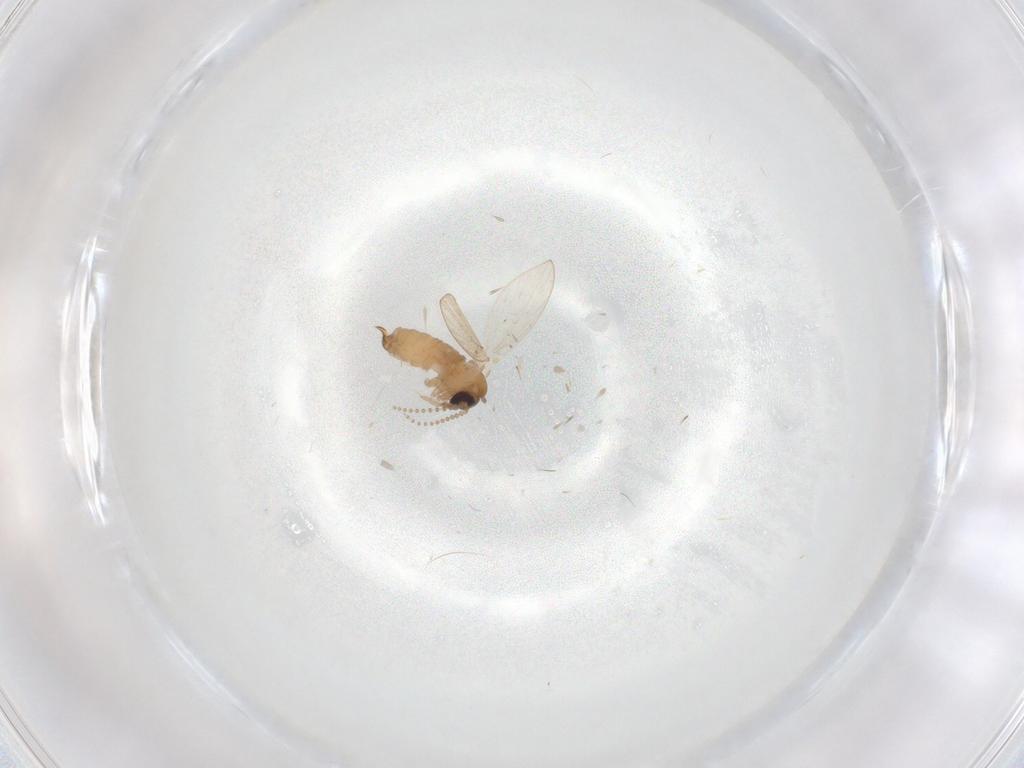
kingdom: Animalia
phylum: Arthropoda
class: Insecta
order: Diptera
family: Psychodidae
